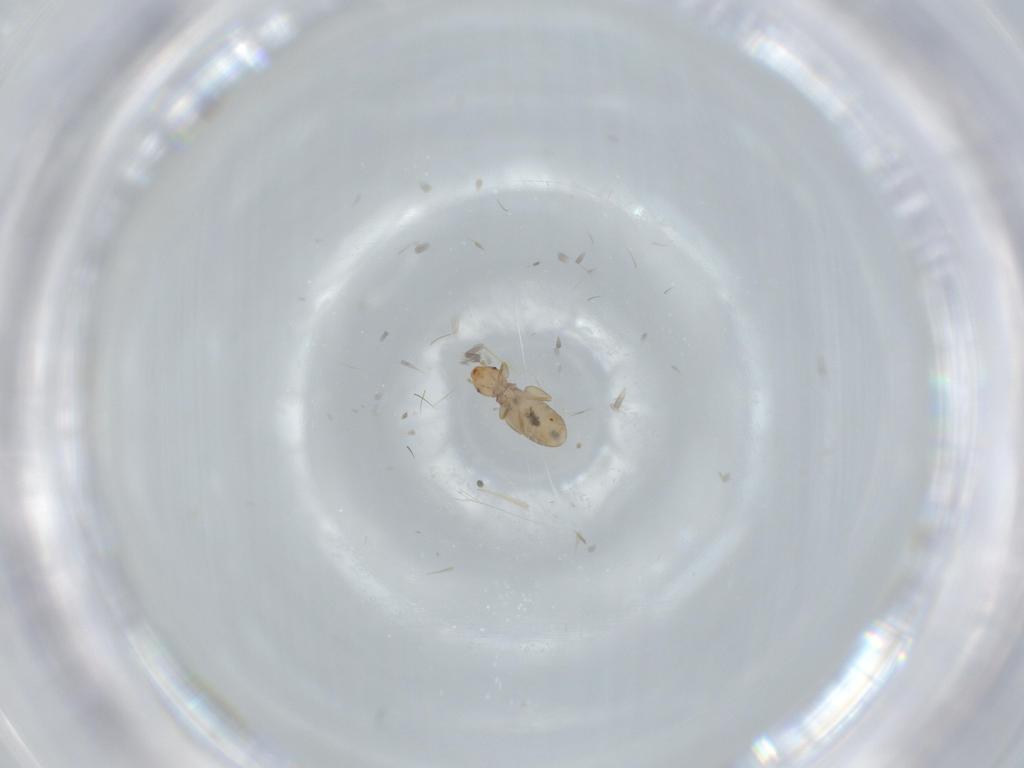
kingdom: Animalia
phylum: Arthropoda
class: Insecta
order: Psocodea
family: Liposcelididae
